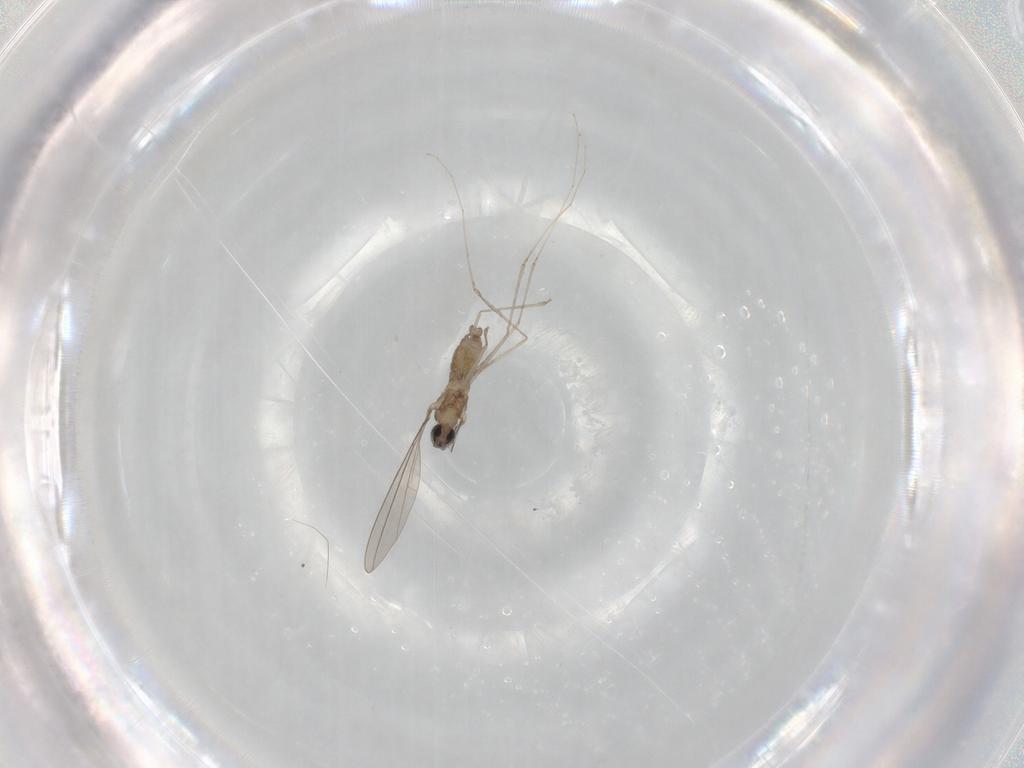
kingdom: Animalia
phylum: Arthropoda
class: Insecta
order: Diptera
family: Cecidomyiidae
